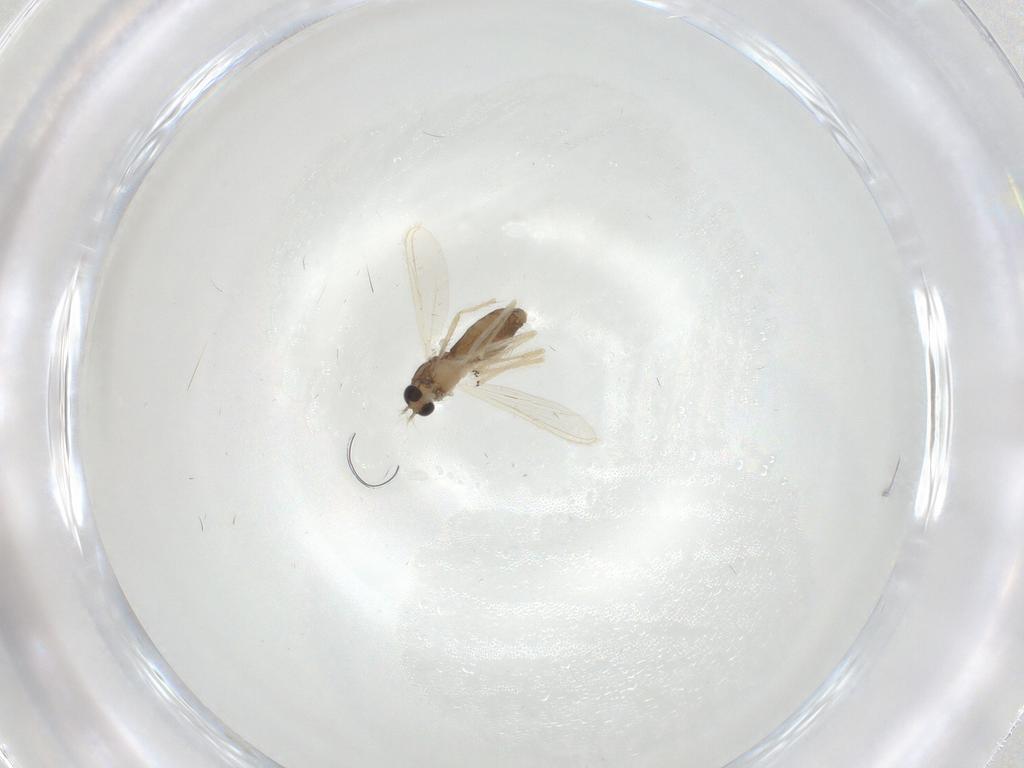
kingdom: Animalia
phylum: Arthropoda
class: Insecta
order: Diptera
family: Chironomidae
